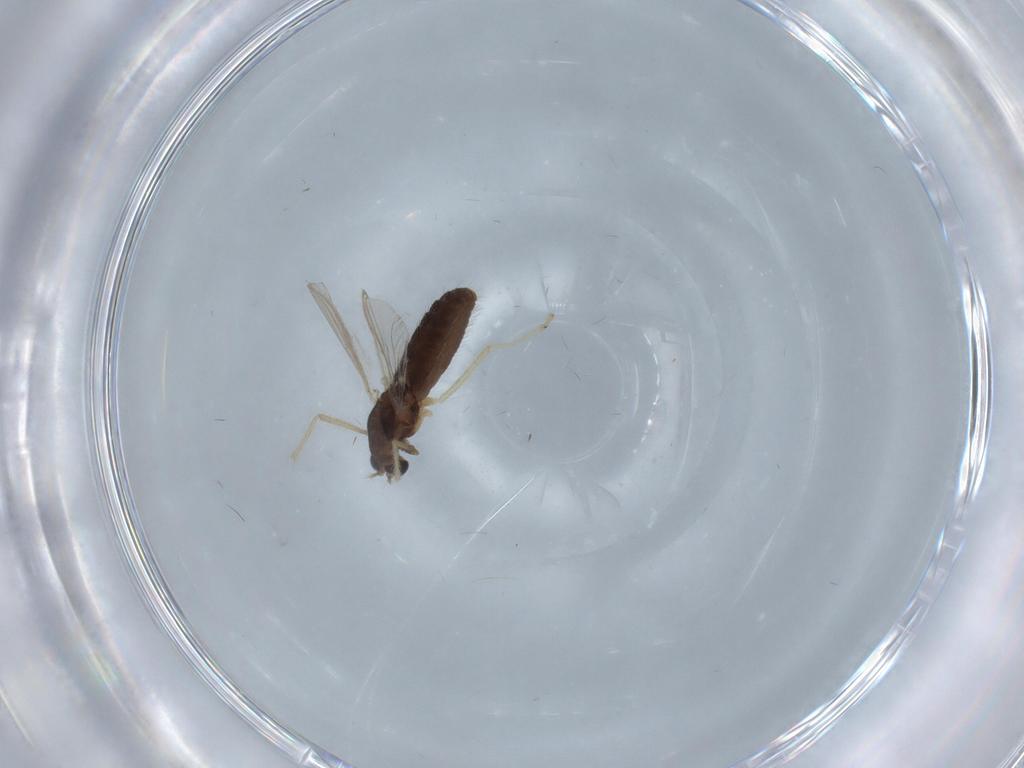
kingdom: Animalia
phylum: Arthropoda
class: Insecta
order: Diptera
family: Chironomidae
